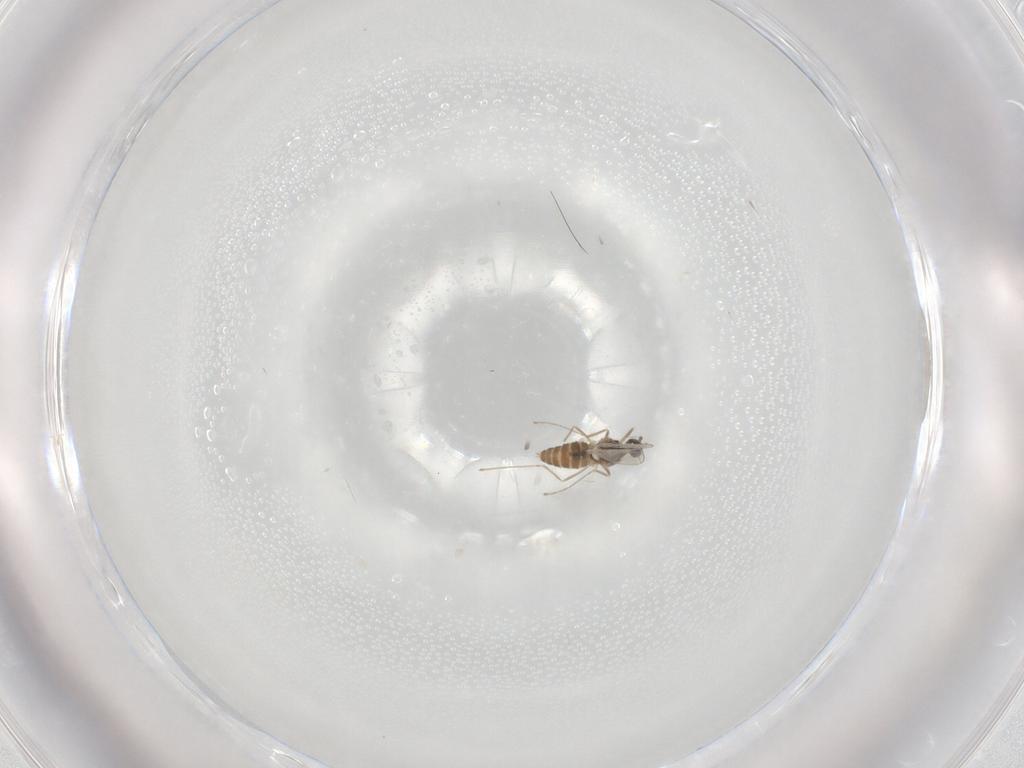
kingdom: Animalia
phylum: Arthropoda
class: Insecta
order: Diptera
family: Cecidomyiidae
